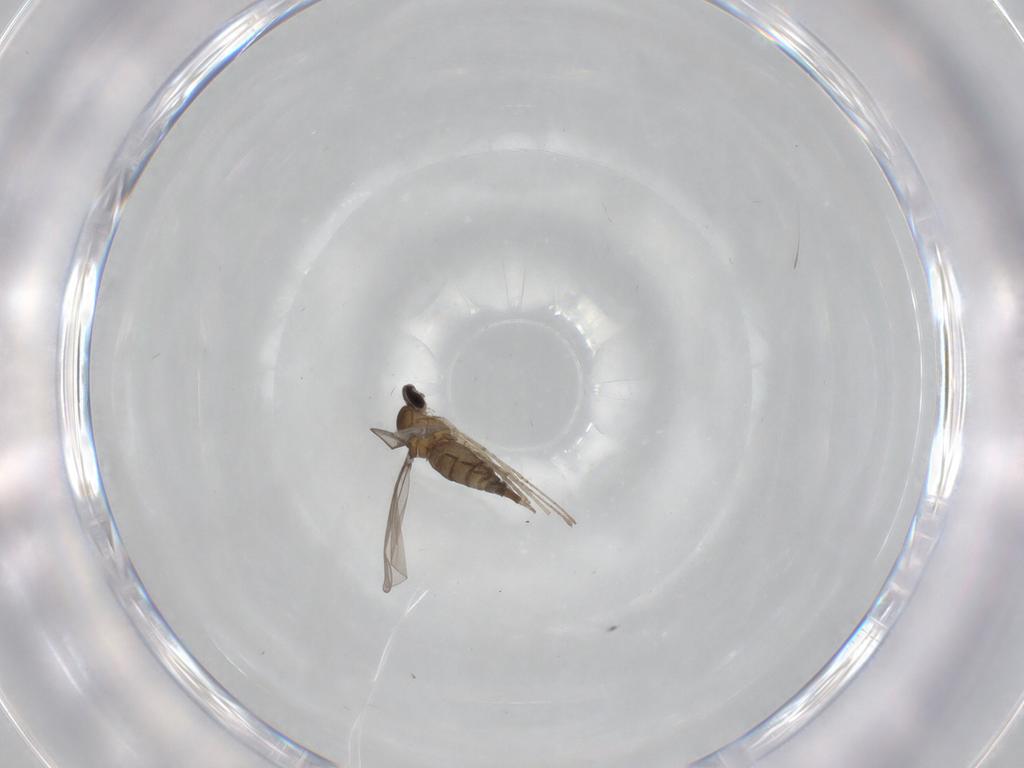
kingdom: Animalia
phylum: Arthropoda
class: Insecta
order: Diptera
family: Cecidomyiidae
